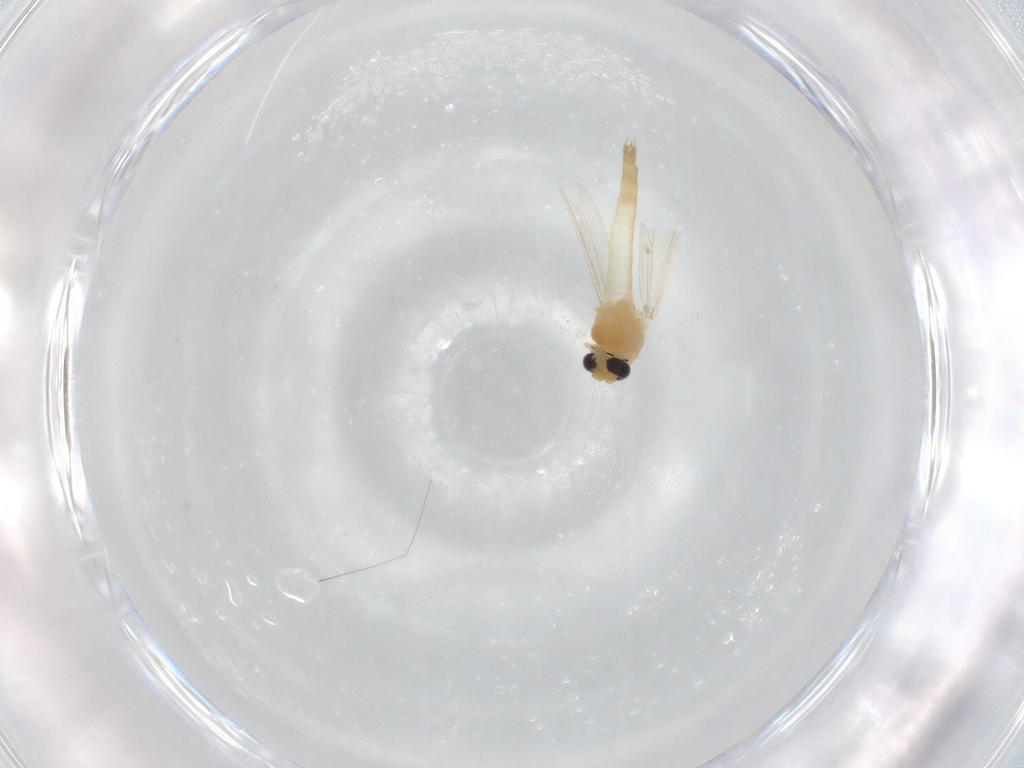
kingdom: Animalia
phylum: Arthropoda
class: Insecta
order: Diptera
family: Chironomidae
